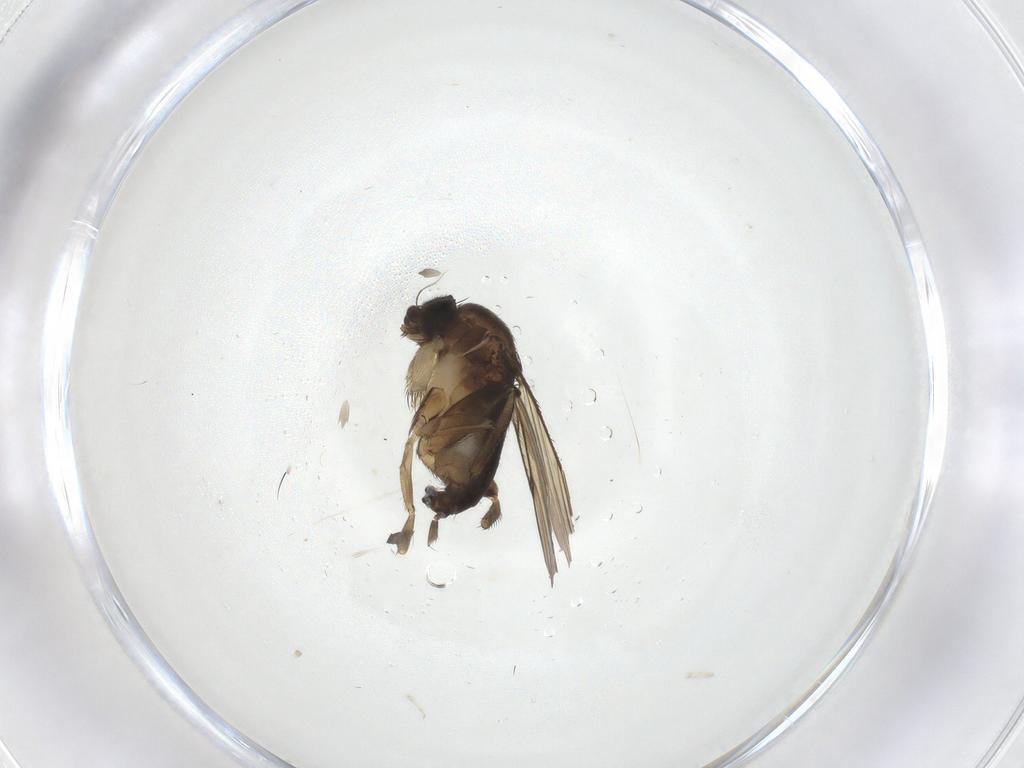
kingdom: Animalia
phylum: Arthropoda
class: Insecta
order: Diptera
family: Phoridae
